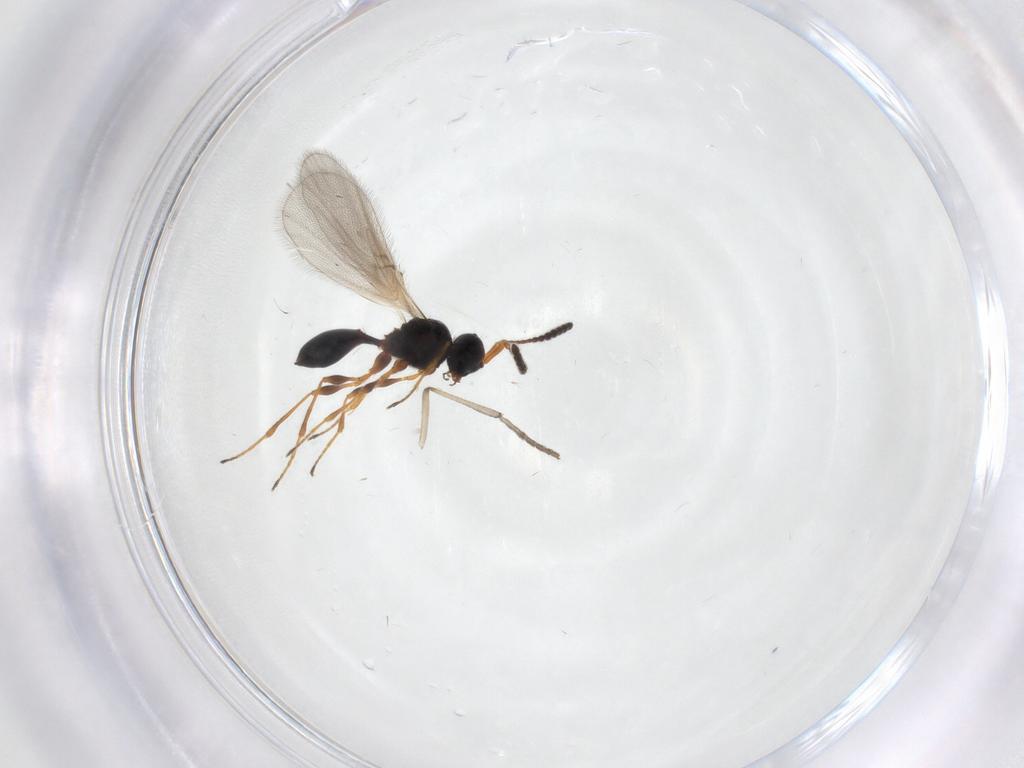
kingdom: Animalia
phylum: Arthropoda
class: Insecta
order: Hymenoptera
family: Diapriidae
